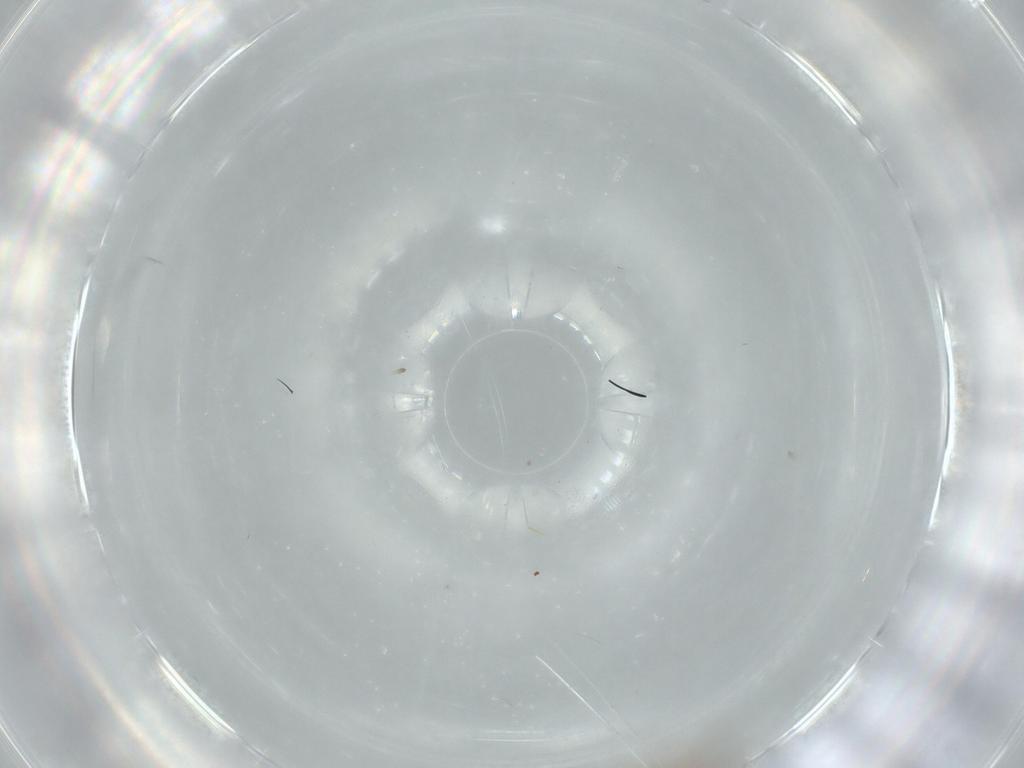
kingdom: Animalia
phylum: Arthropoda
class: Insecta
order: Coleoptera
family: Staphylinidae
